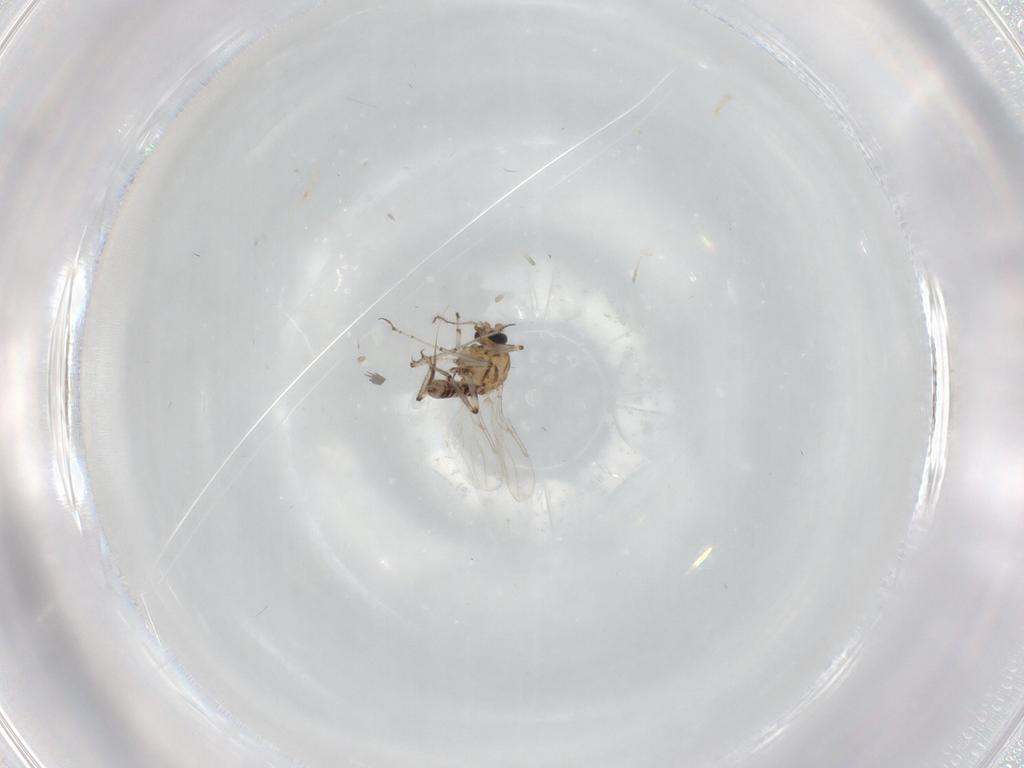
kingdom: Animalia
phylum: Arthropoda
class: Insecta
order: Diptera
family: Ceratopogonidae
